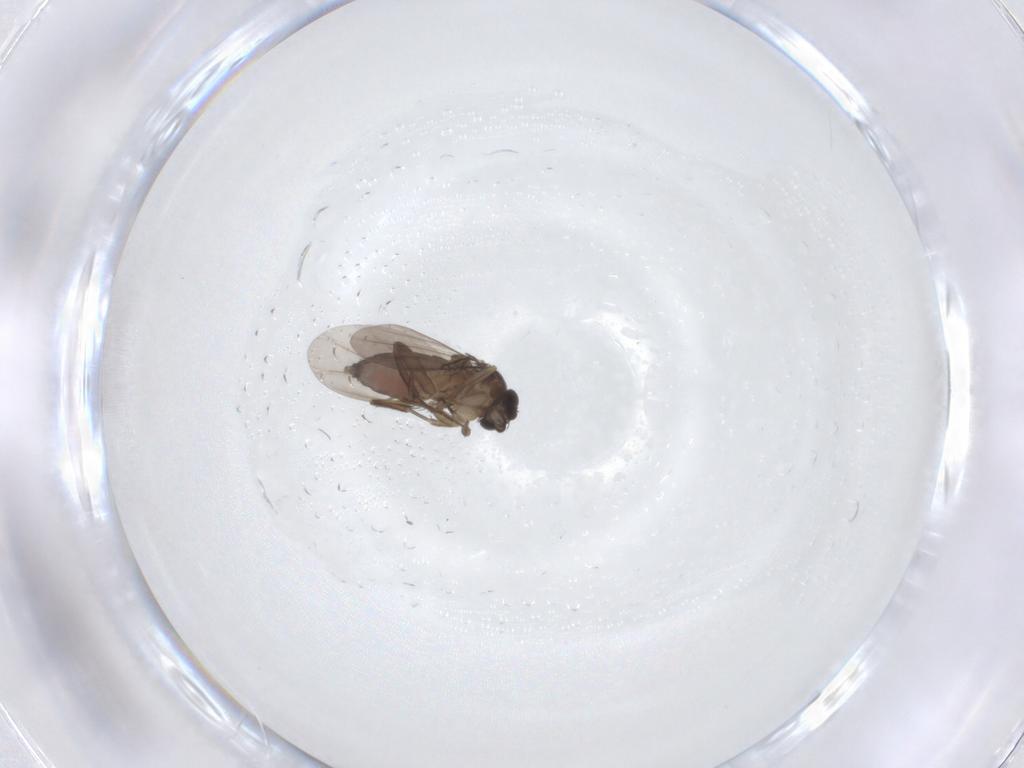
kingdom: Animalia
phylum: Arthropoda
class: Insecta
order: Diptera
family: Phoridae
